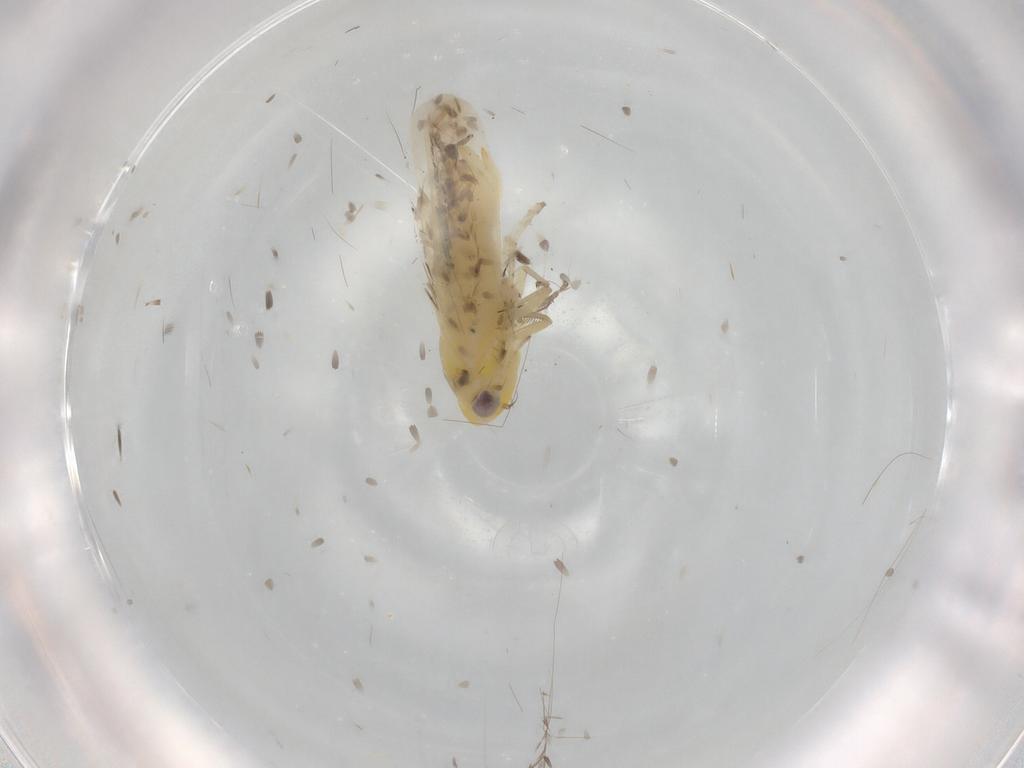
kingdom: Animalia
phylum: Arthropoda
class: Insecta
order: Hemiptera
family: Cicadellidae
